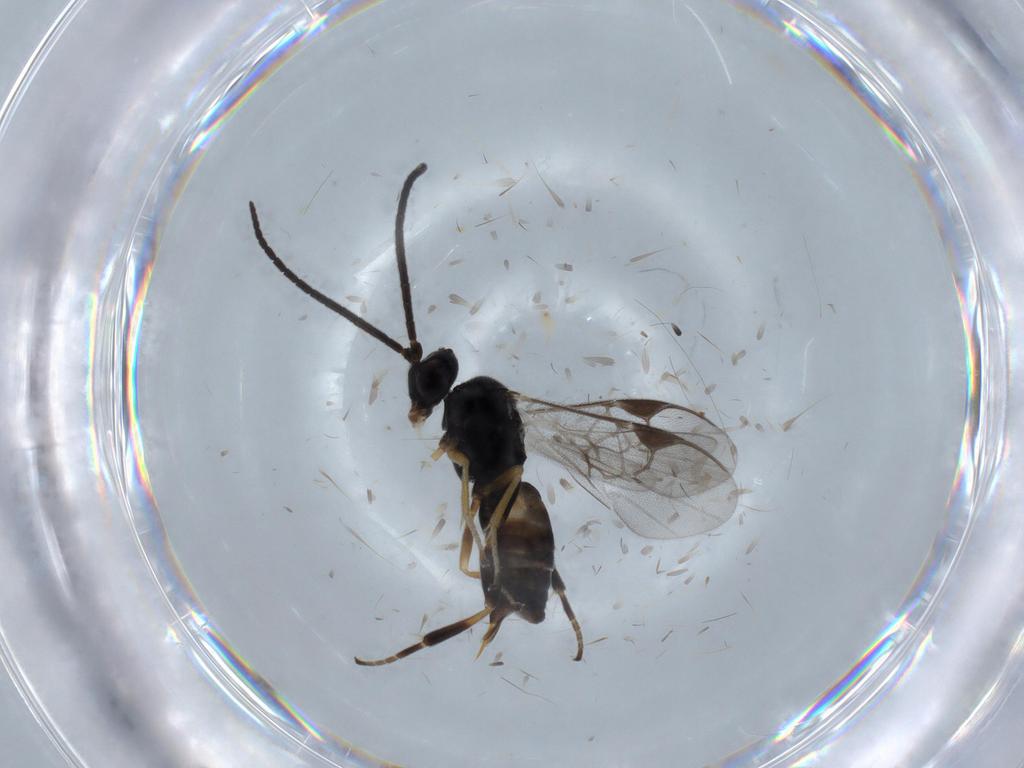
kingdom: Animalia
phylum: Arthropoda
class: Insecta
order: Hymenoptera
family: Braconidae
